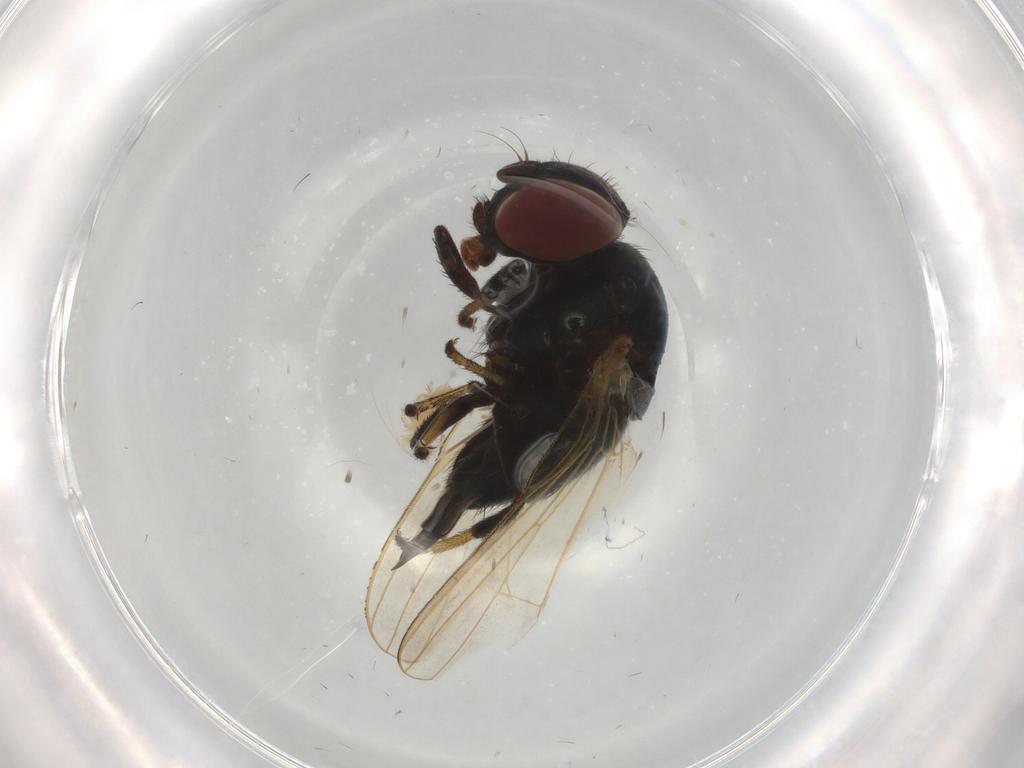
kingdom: Animalia
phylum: Arthropoda
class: Insecta
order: Diptera
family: Lonchaeidae
